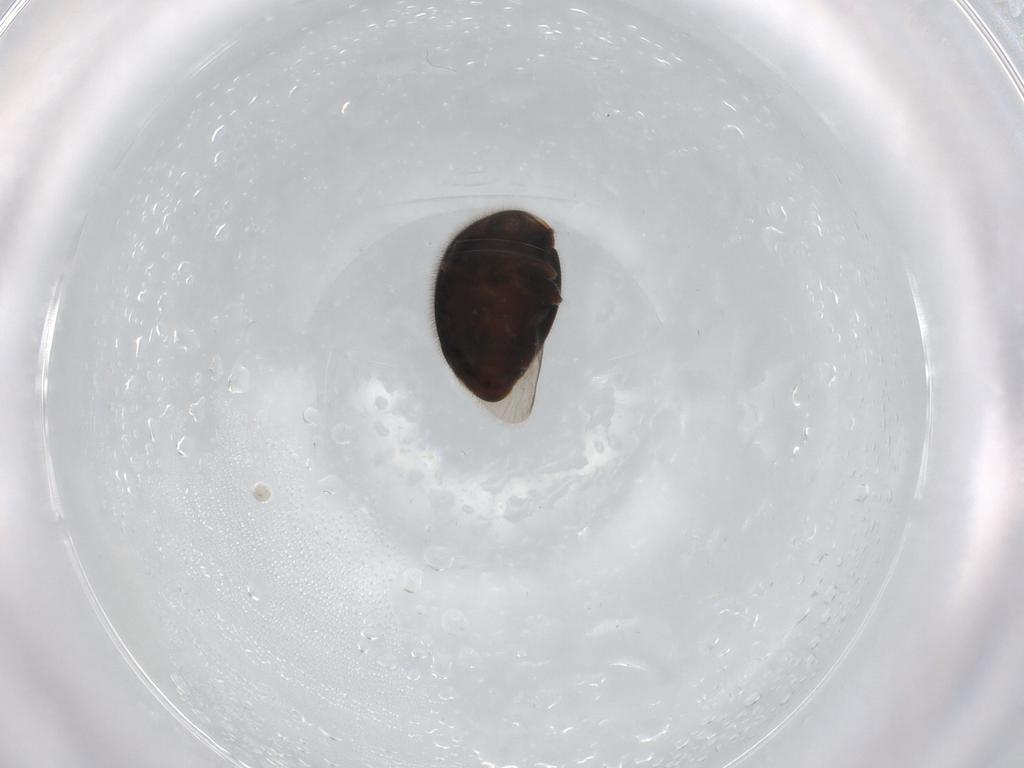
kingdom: Animalia
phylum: Arthropoda
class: Insecta
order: Coleoptera
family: Corylophidae
